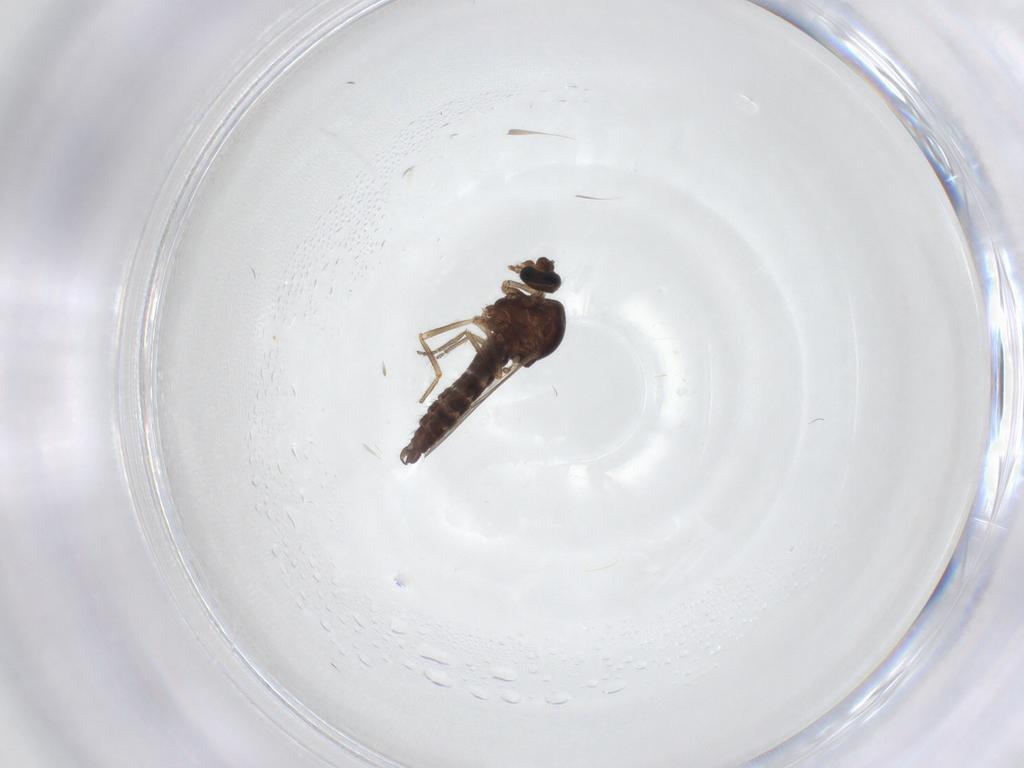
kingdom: Animalia
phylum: Arthropoda
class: Insecta
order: Diptera
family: Ceratopogonidae
